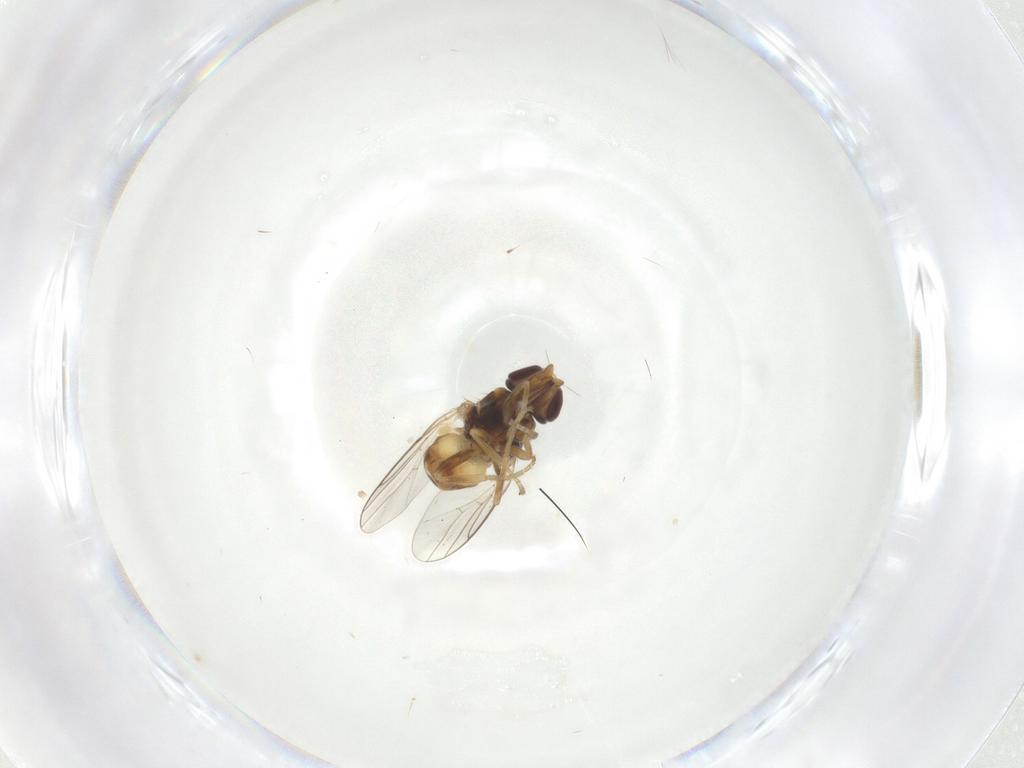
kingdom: Animalia
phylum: Arthropoda
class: Insecta
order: Diptera
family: Chloropidae
